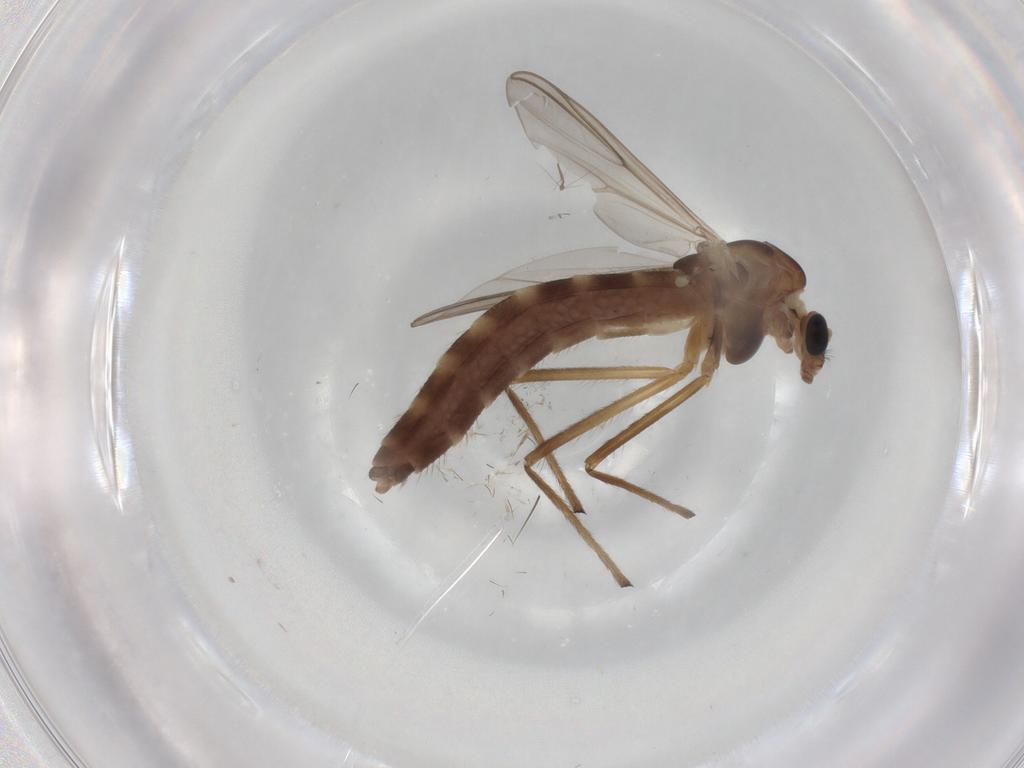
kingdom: Animalia
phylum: Arthropoda
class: Insecta
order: Diptera
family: Chironomidae
